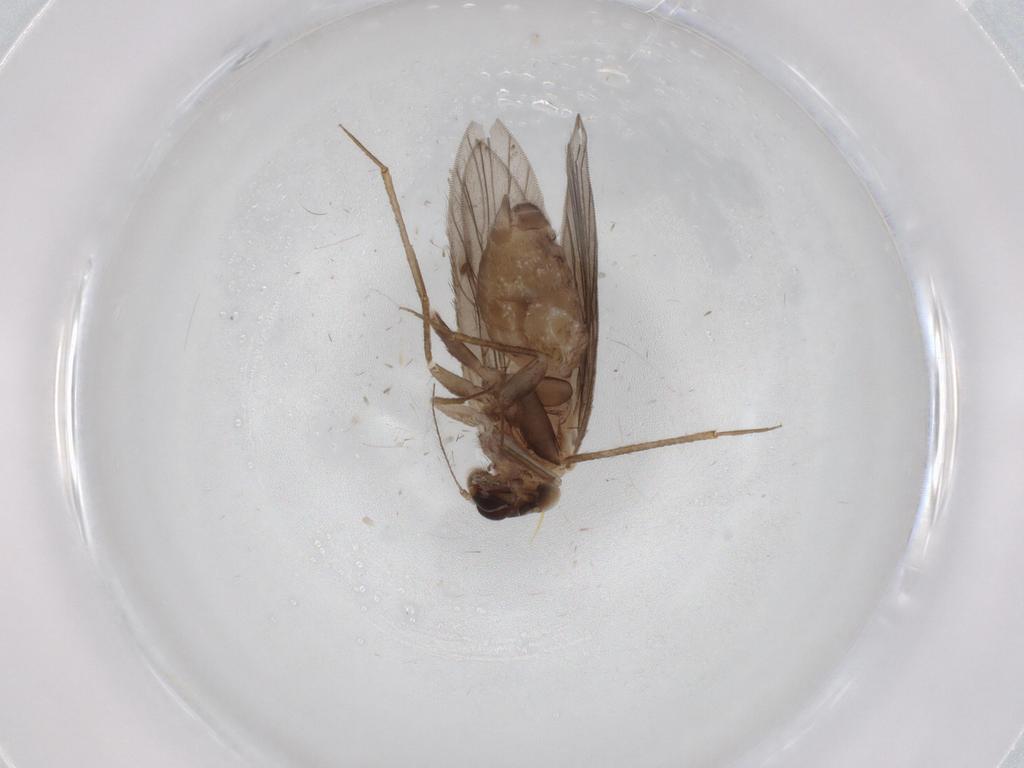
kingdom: Animalia
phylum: Arthropoda
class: Insecta
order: Psocodea
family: Lepidopsocidae
